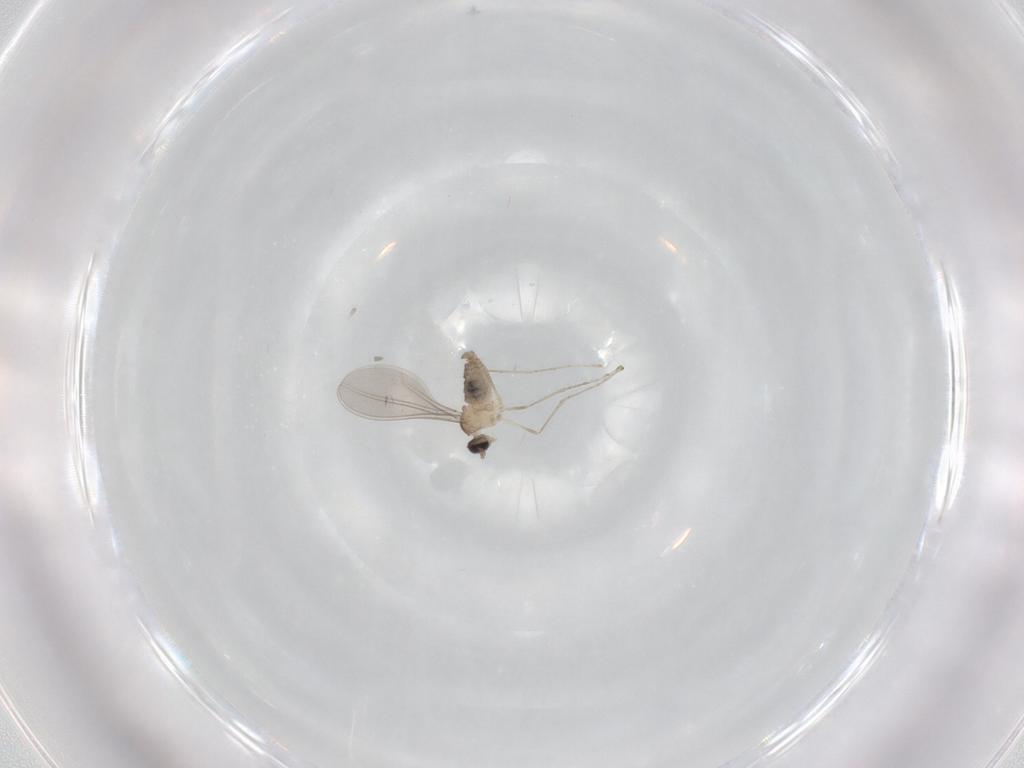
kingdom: Animalia
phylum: Arthropoda
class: Insecta
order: Diptera
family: Cecidomyiidae
